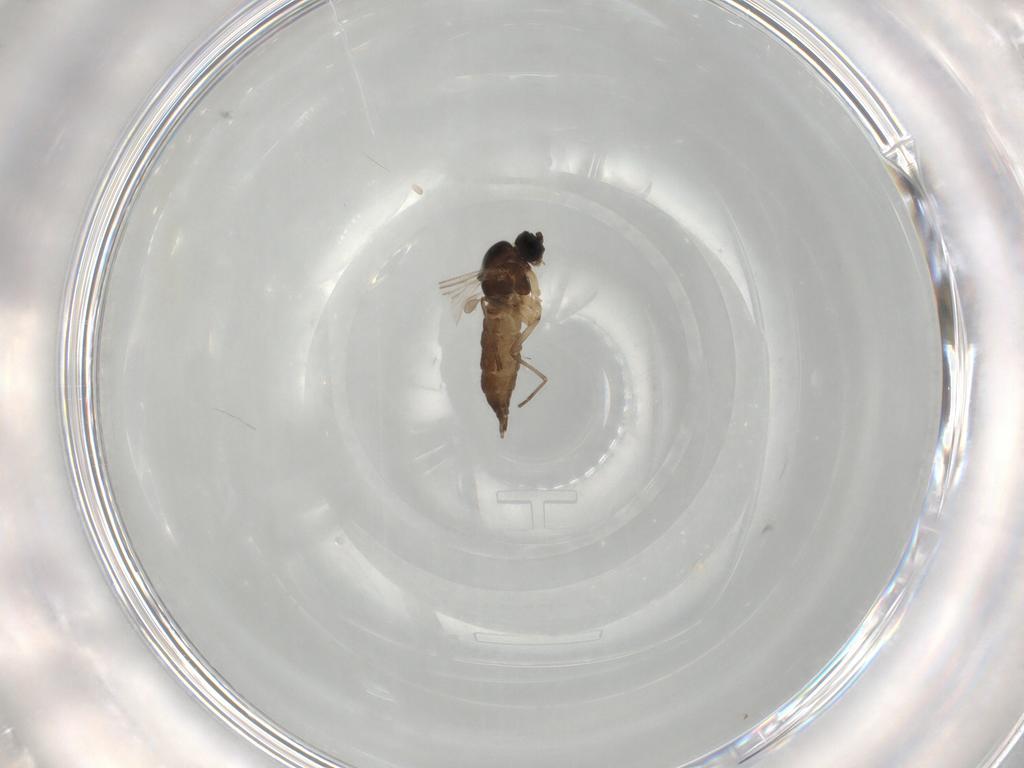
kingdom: Animalia
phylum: Arthropoda
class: Insecta
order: Diptera
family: Sciaridae
